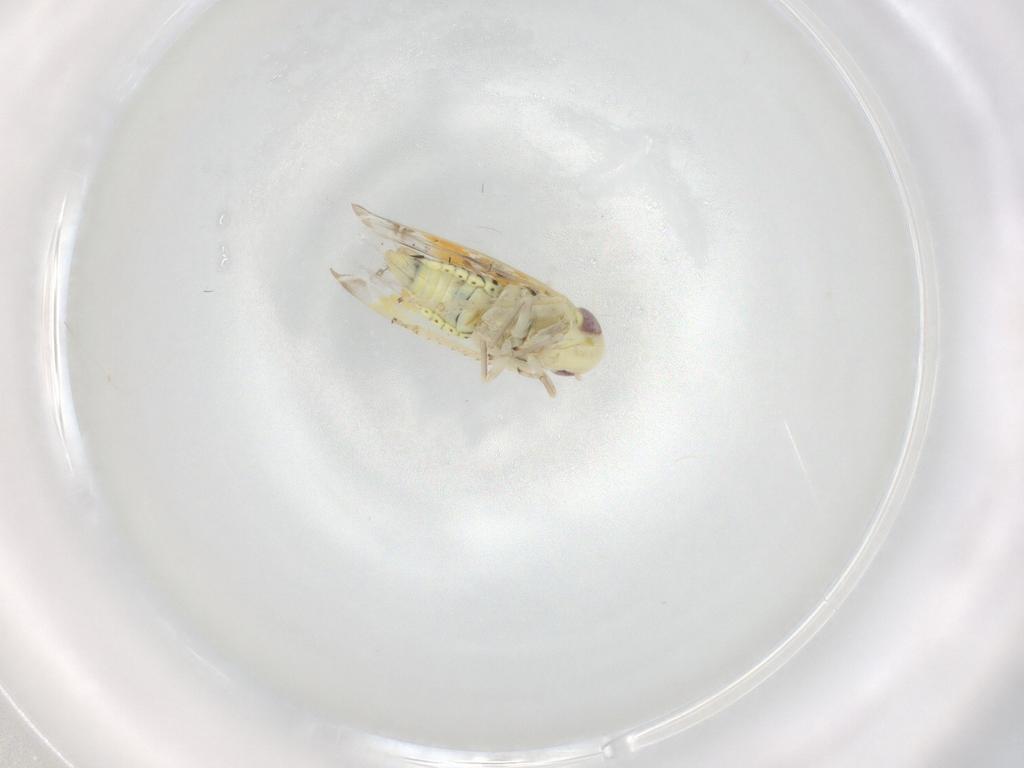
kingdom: Animalia
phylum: Arthropoda
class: Insecta
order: Hemiptera
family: Cicadellidae
